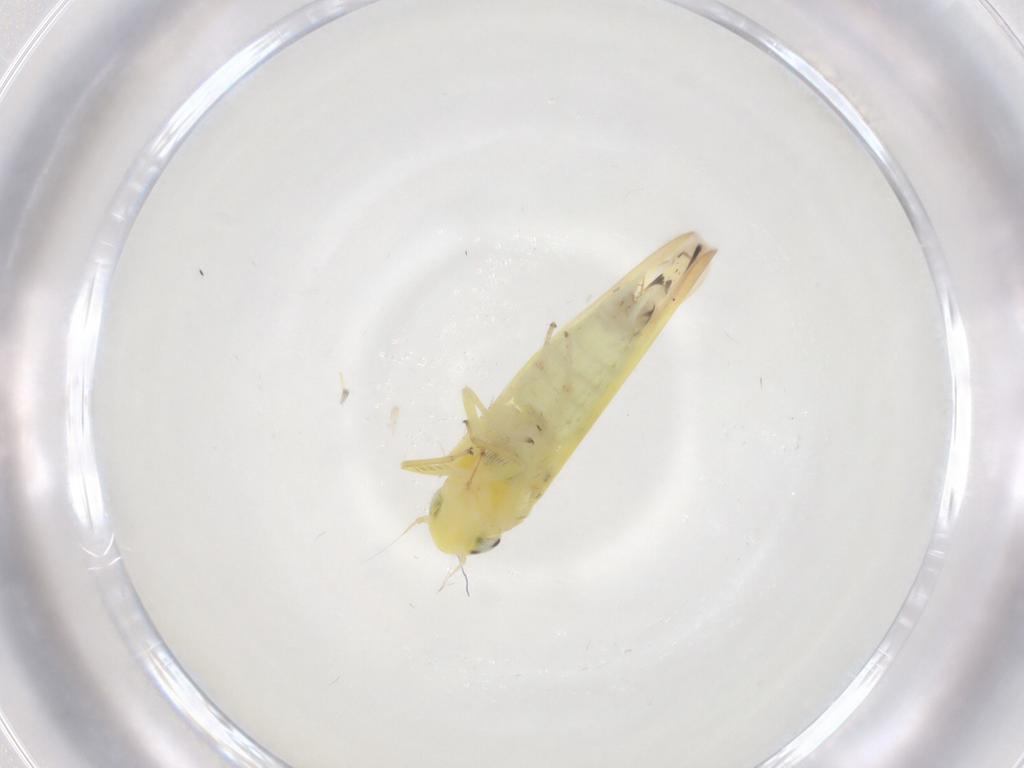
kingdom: Animalia
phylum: Arthropoda
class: Insecta
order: Hemiptera
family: Cicadellidae
